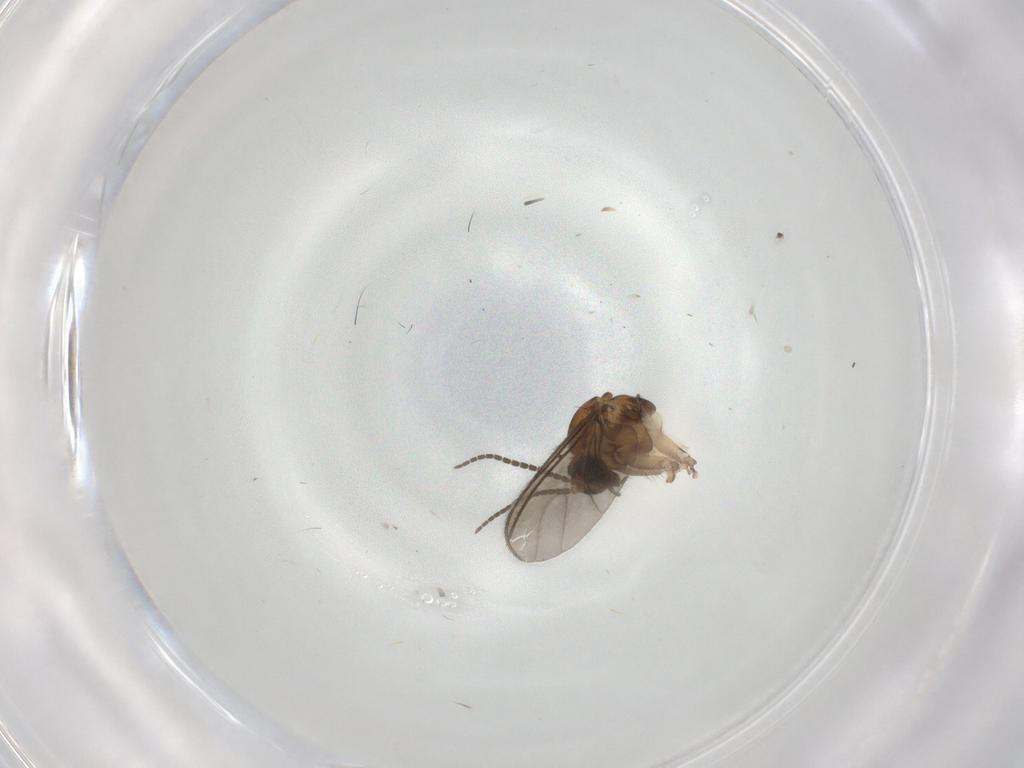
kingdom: Animalia
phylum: Arthropoda
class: Insecta
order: Diptera
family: Sciaridae
